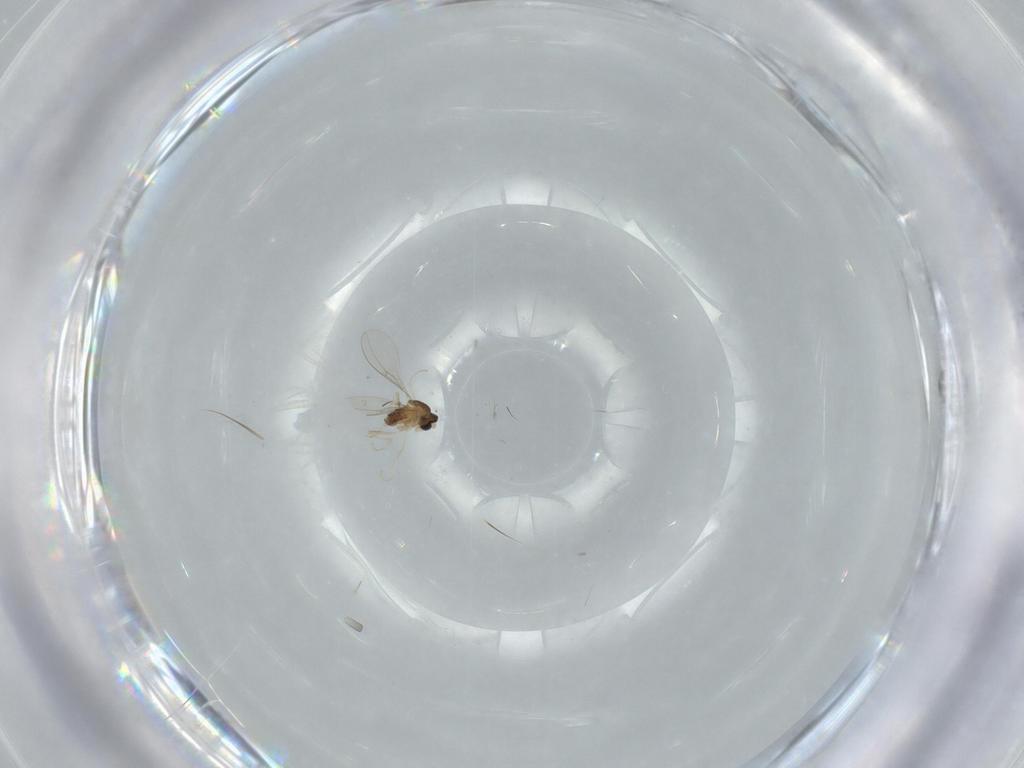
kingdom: Animalia
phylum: Arthropoda
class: Insecta
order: Diptera
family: Cecidomyiidae
